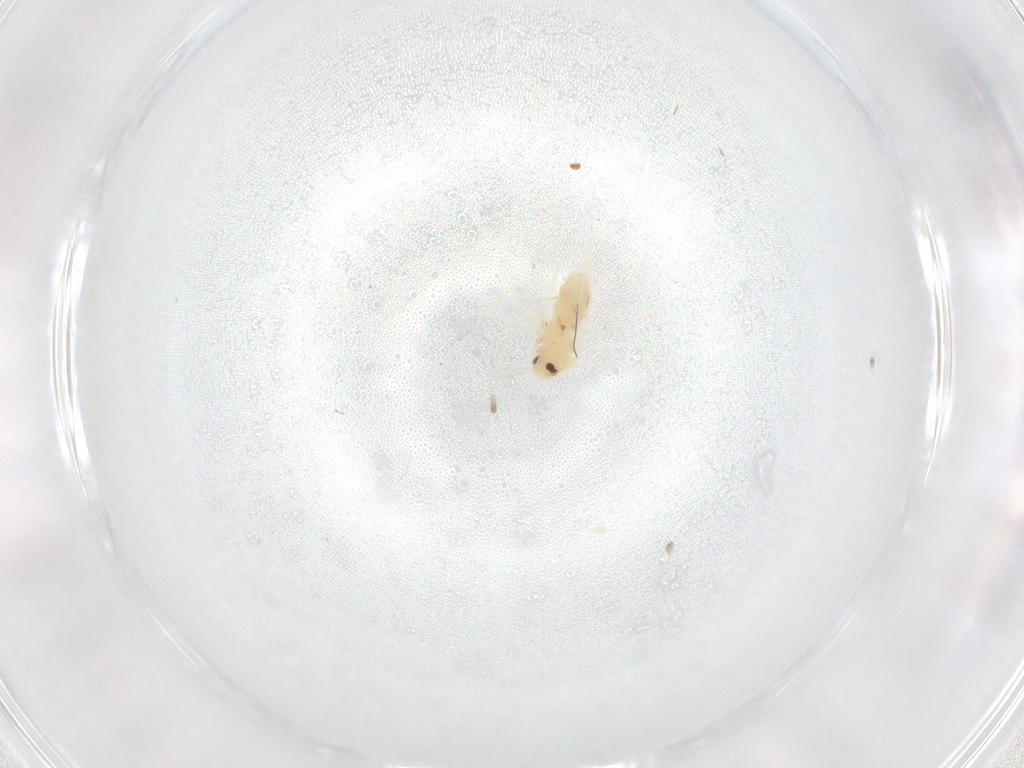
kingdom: Animalia
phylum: Arthropoda
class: Insecta
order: Hemiptera
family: Aleyrodidae
